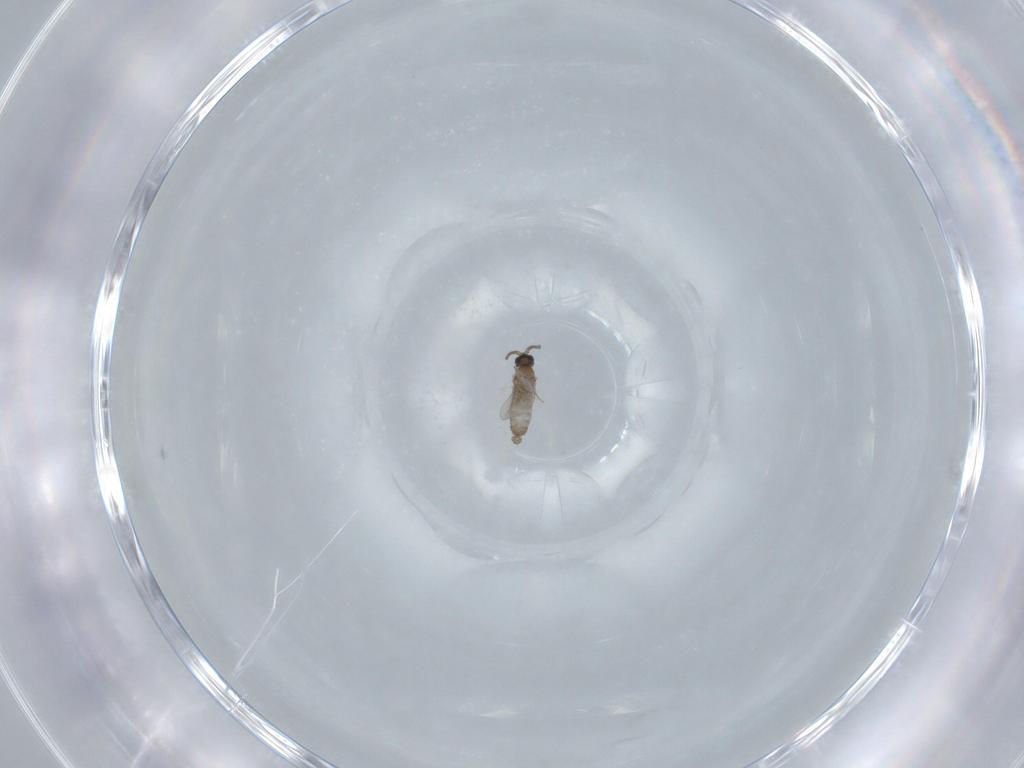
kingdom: Animalia
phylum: Arthropoda
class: Insecta
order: Diptera
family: Cecidomyiidae
